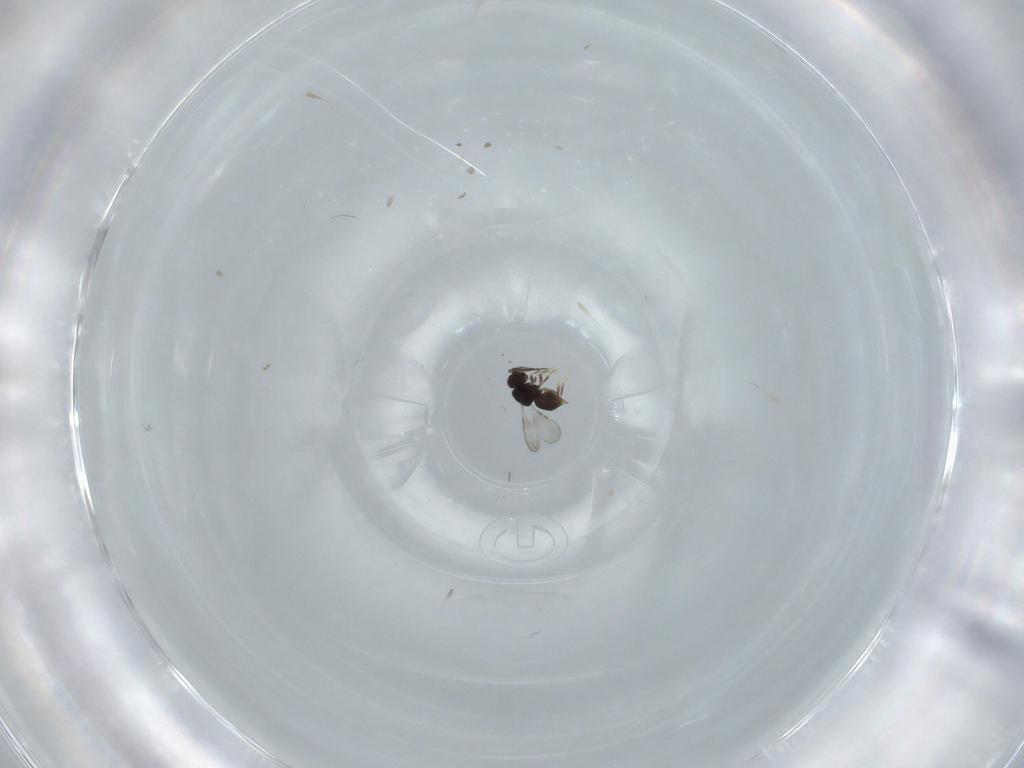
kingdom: Animalia
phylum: Arthropoda
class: Insecta
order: Hymenoptera
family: Ceraphronidae
